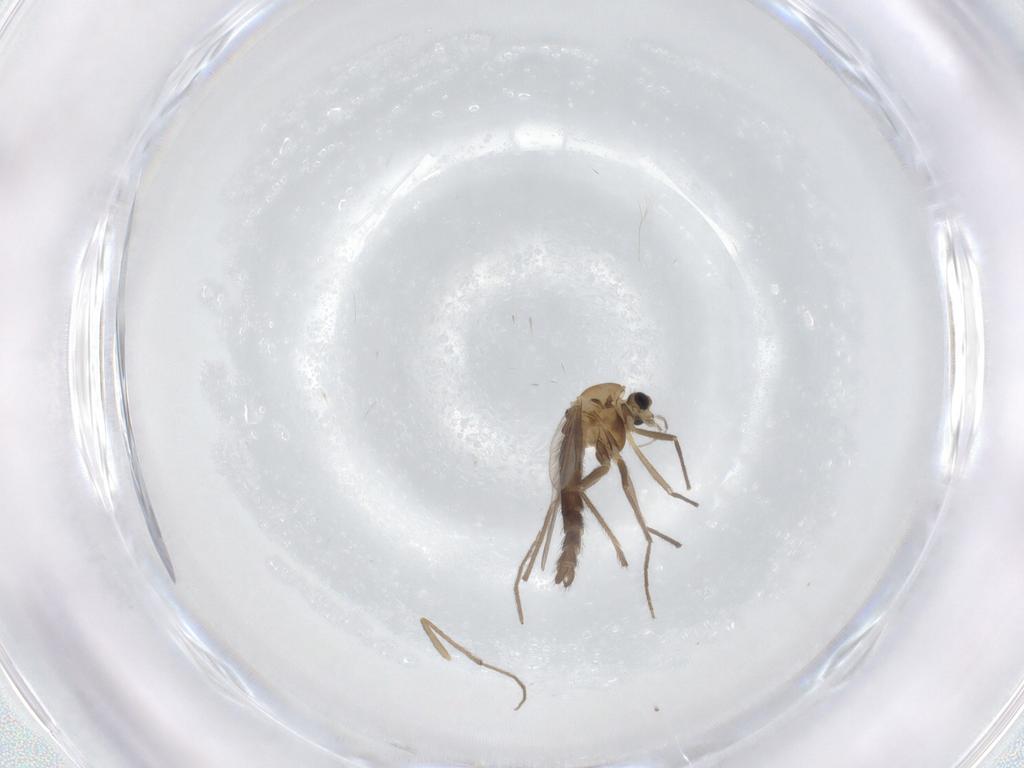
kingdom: Animalia
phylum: Arthropoda
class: Insecta
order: Diptera
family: Chironomidae
